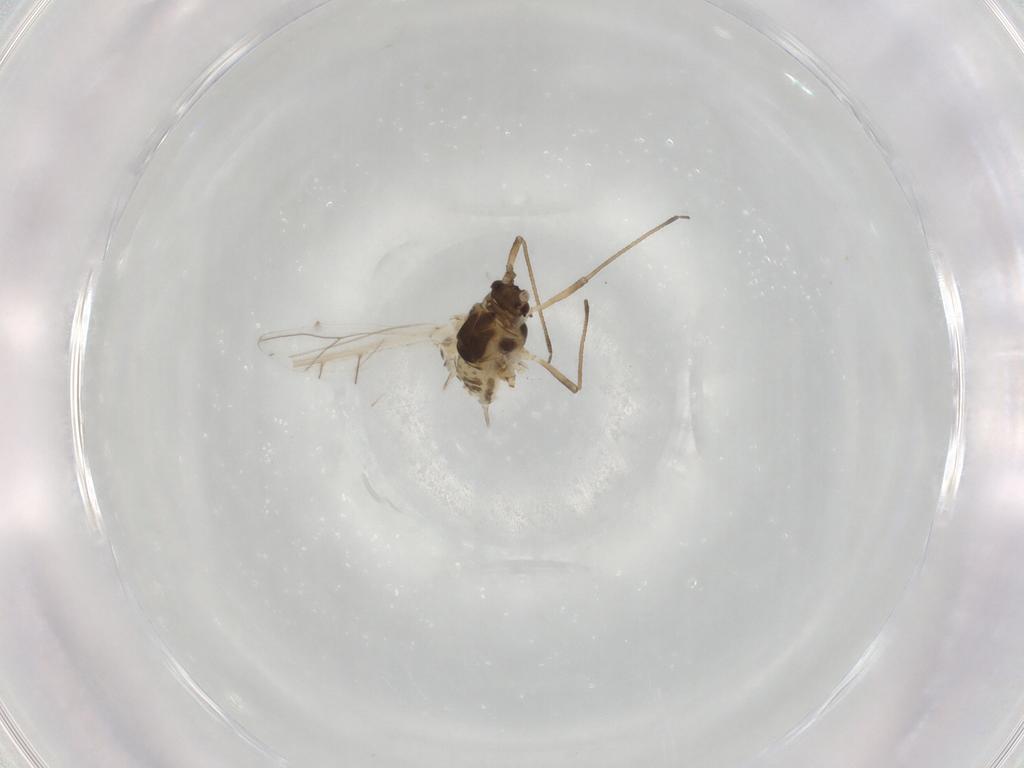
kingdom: Animalia
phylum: Arthropoda
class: Insecta
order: Hemiptera
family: Aphididae
